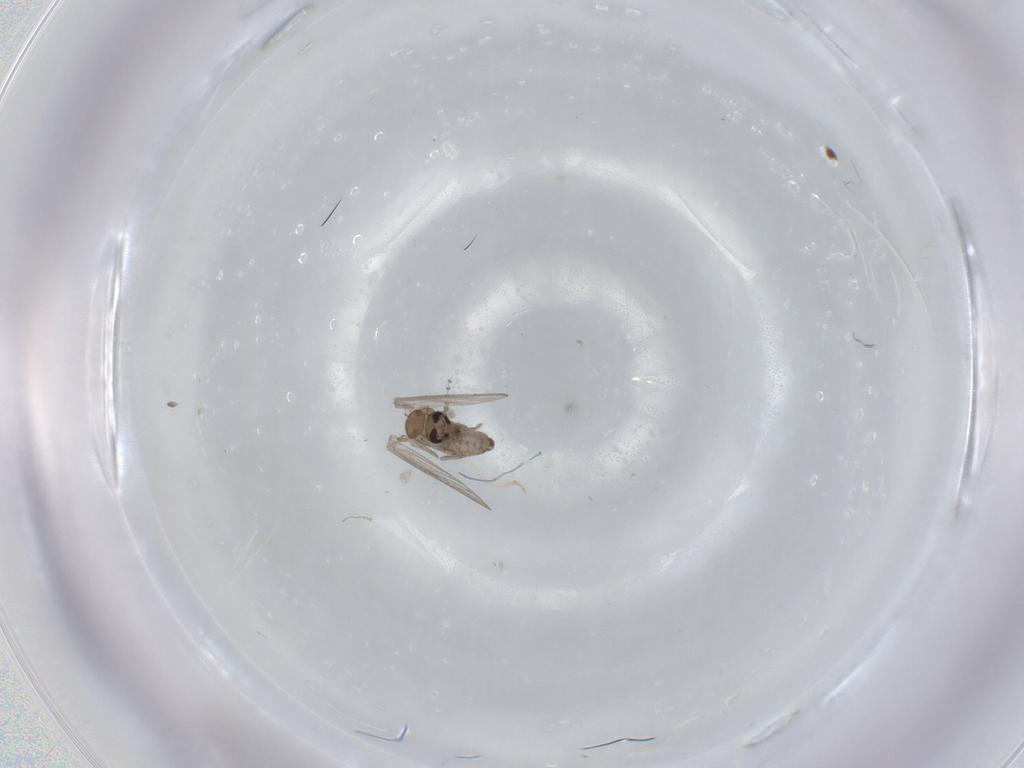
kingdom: Animalia
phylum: Arthropoda
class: Insecta
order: Diptera
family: Psychodidae
